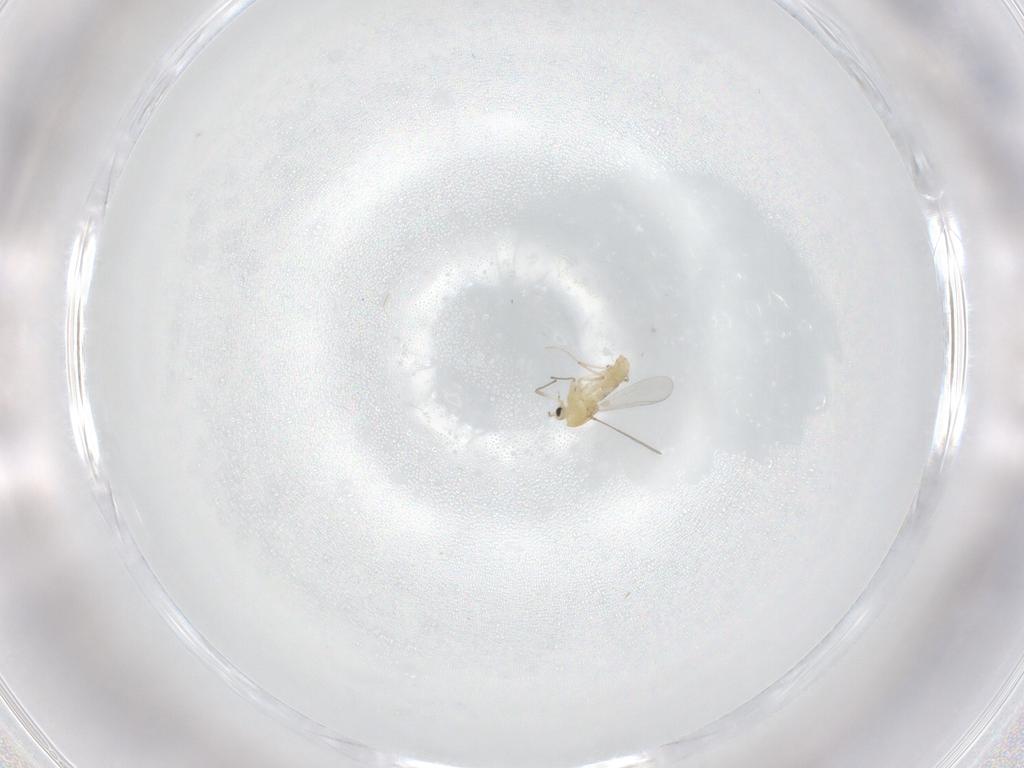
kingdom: Animalia
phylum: Arthropoda
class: Insecta
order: Diptera
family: Chironomidae
